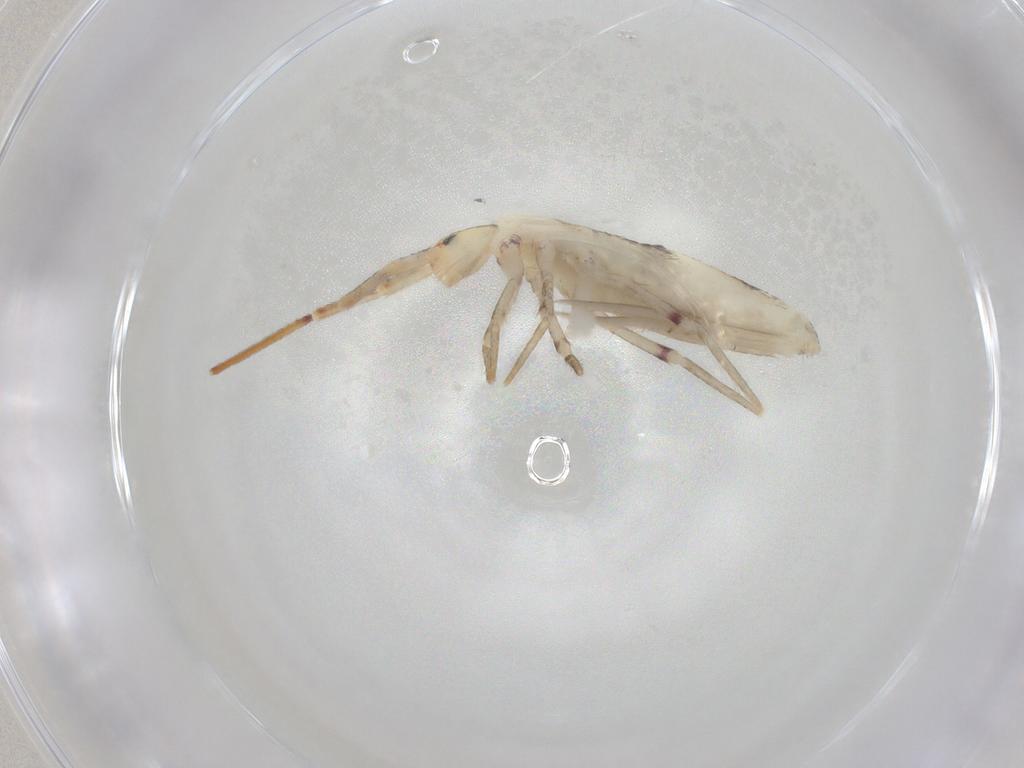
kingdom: Animalia
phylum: Arthropoda
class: Collembola
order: Poduromorpha
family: Hypogastruridae
